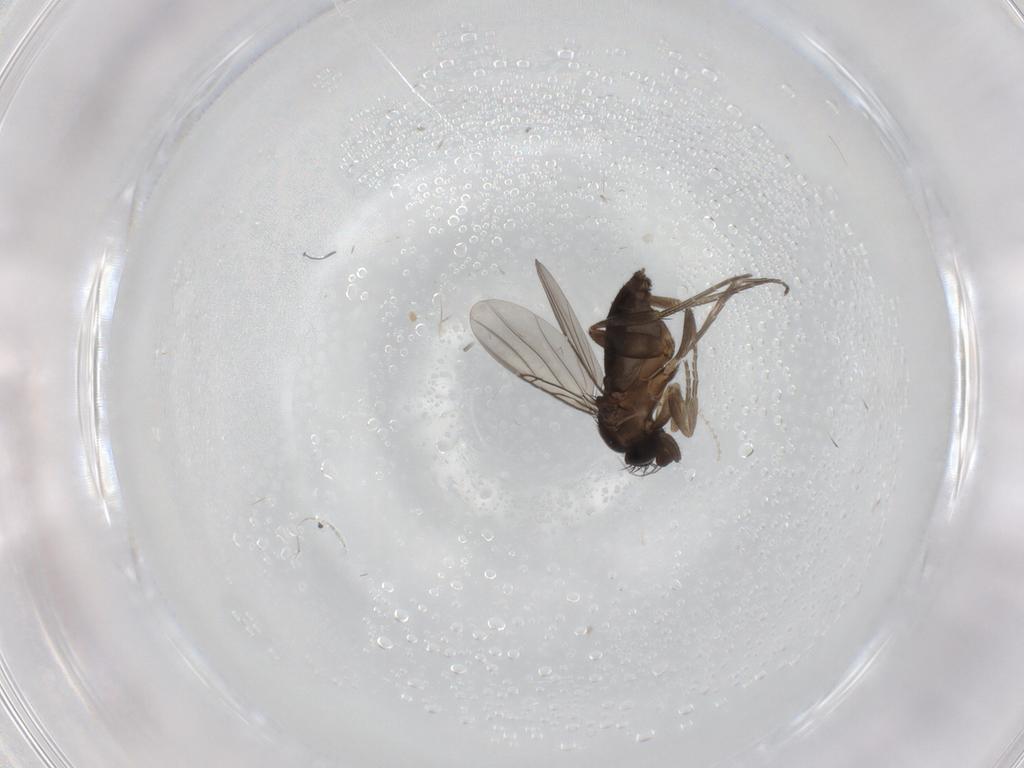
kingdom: Animalia
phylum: Arthropoda
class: Insecta
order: Diptera
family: Phoridae
